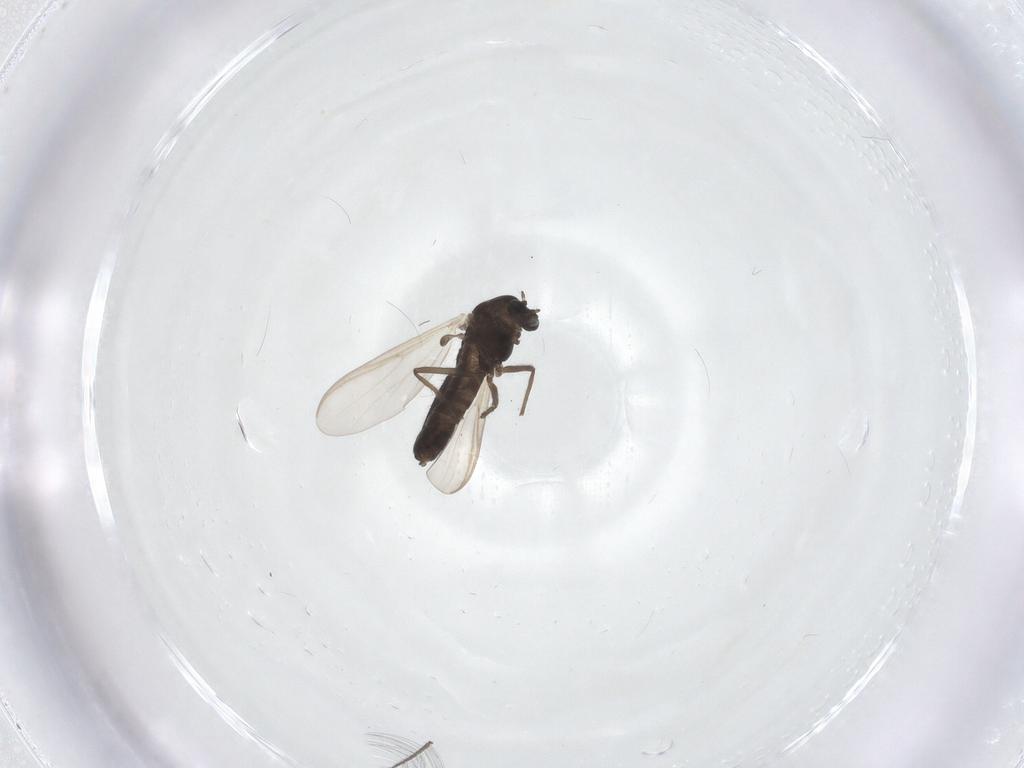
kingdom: Animalia
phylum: Arthropoda
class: Insecta
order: Diptera
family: Chironomidae
